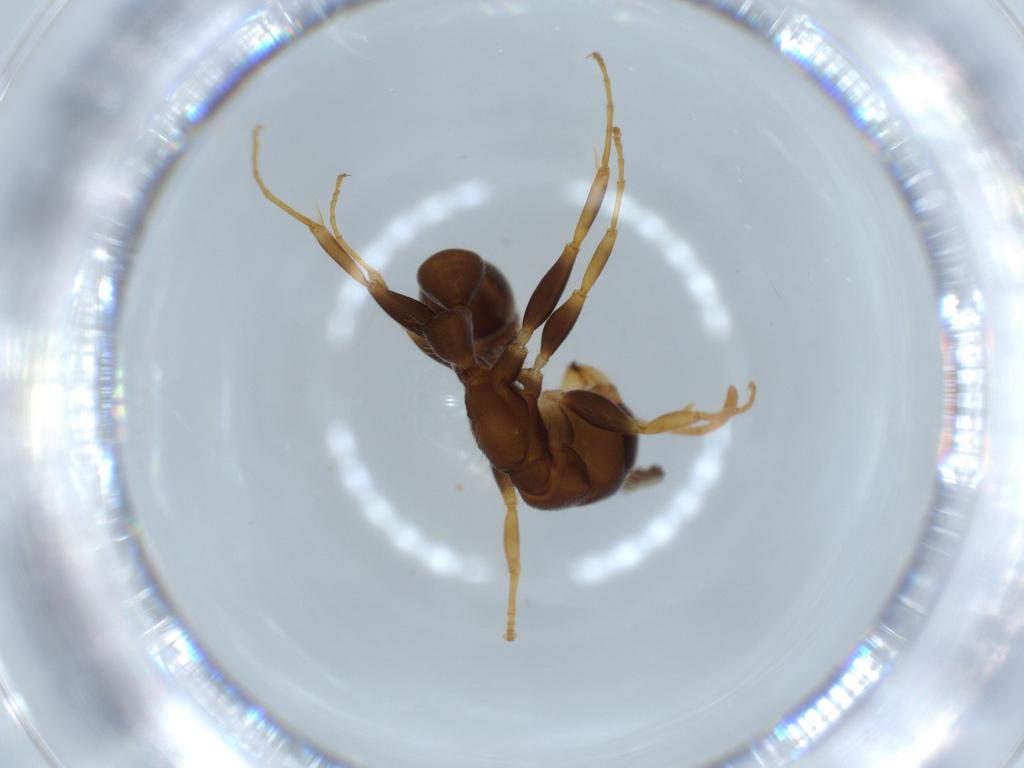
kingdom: Animalia
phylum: Arthropoda
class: Insecta
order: Hymenoptera
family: Formicidae
